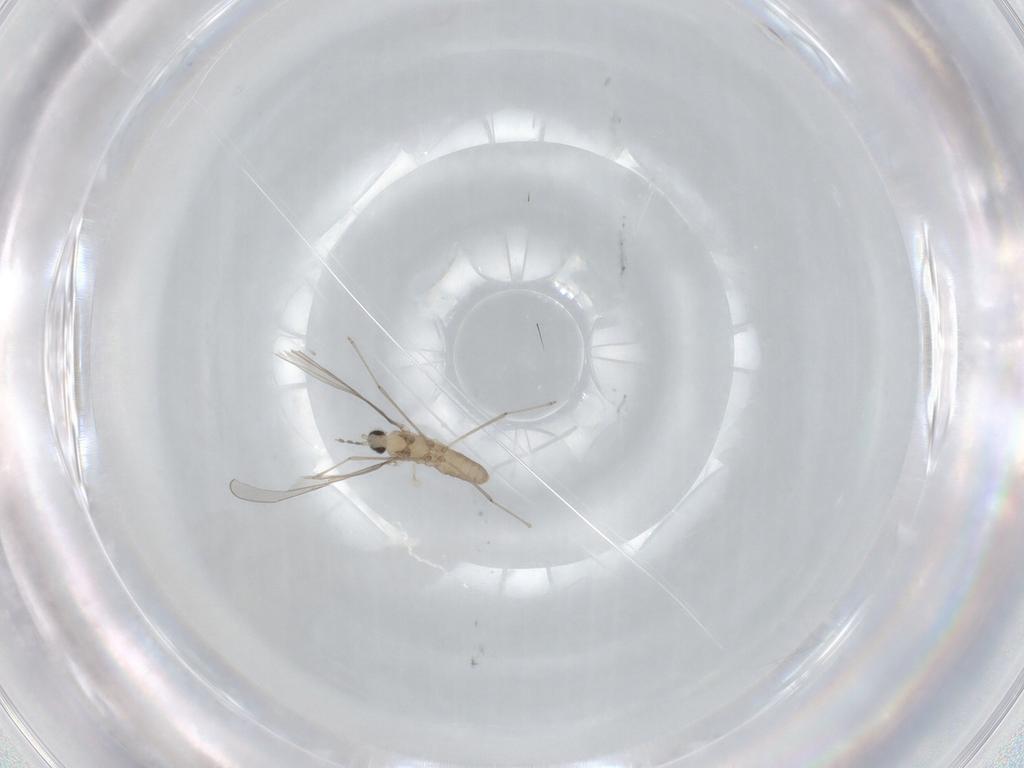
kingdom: Animalia
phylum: Arthropoda
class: Insecta
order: Diptera
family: Cecidomyiidae
